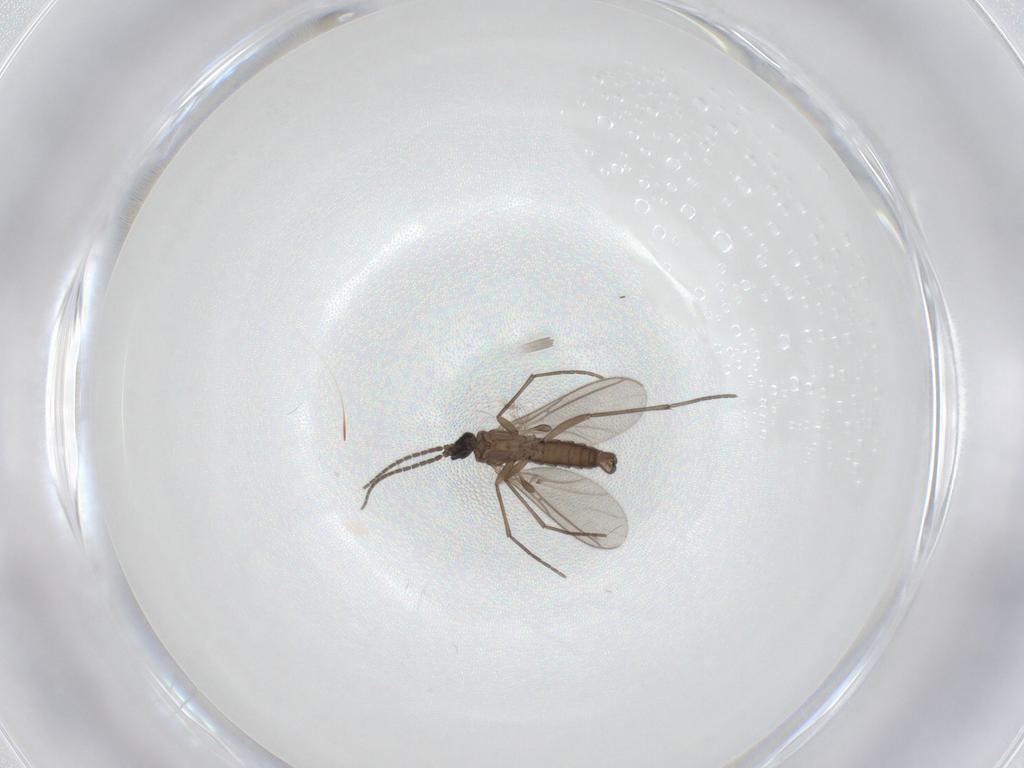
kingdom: Animalia
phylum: Arthropoda
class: Insecta
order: Diptera
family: Sciaridae
